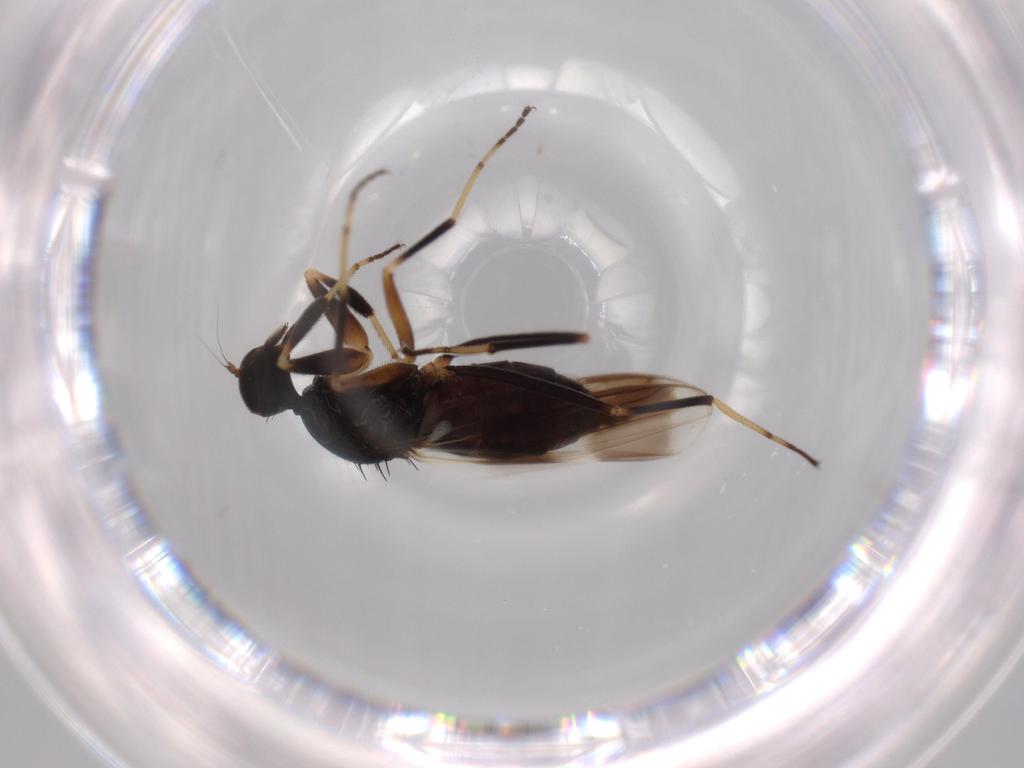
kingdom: Animalia
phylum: Arthropoda
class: Insecta
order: Diptera
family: Hybotidae
